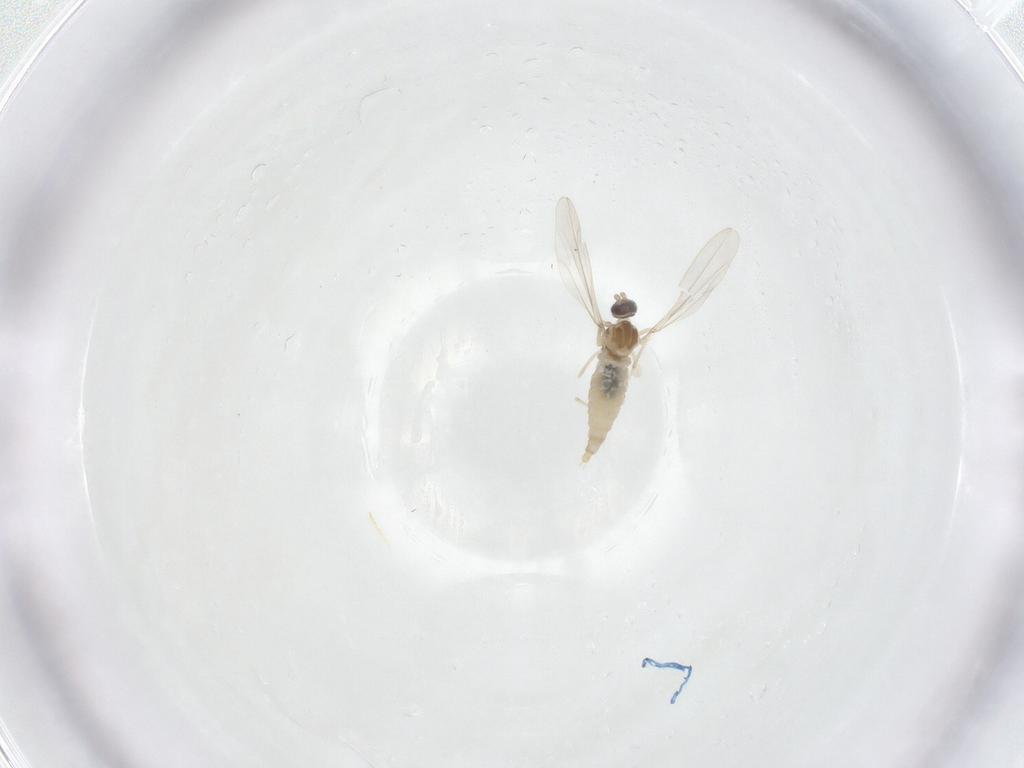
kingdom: Animalia
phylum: Arthropoda
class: Insecta
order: Diptera
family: Cecidomyiidae
